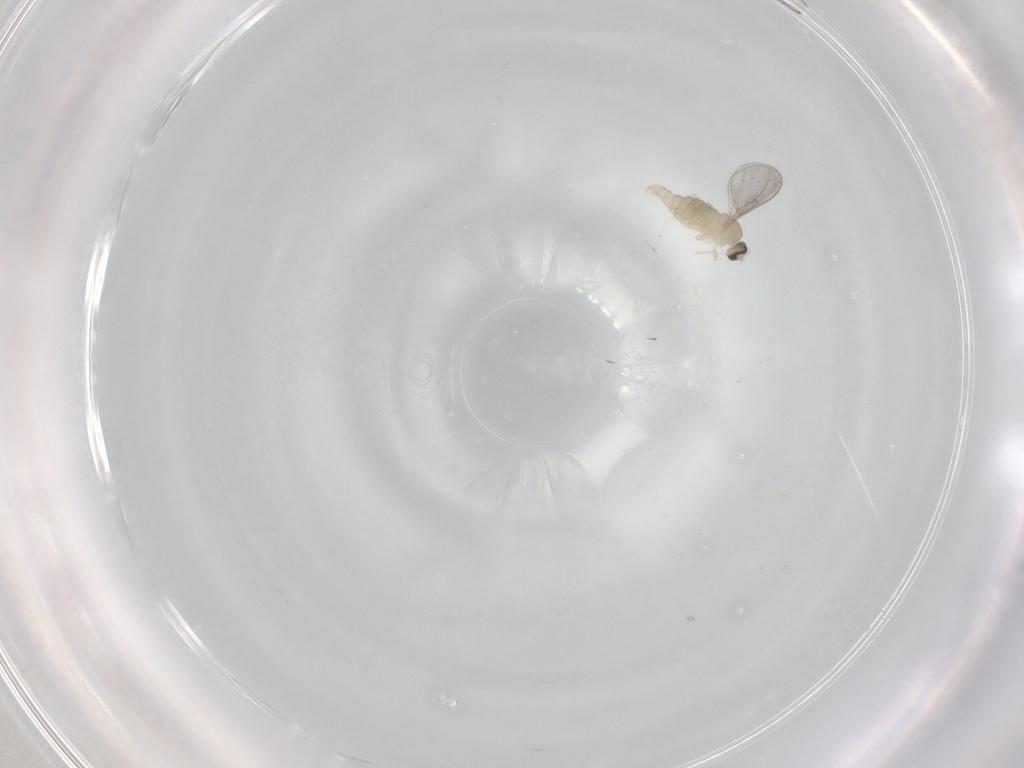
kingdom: Animalia
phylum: Arthropoda
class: Insecta
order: Diptera
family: Cecidomyiidae
